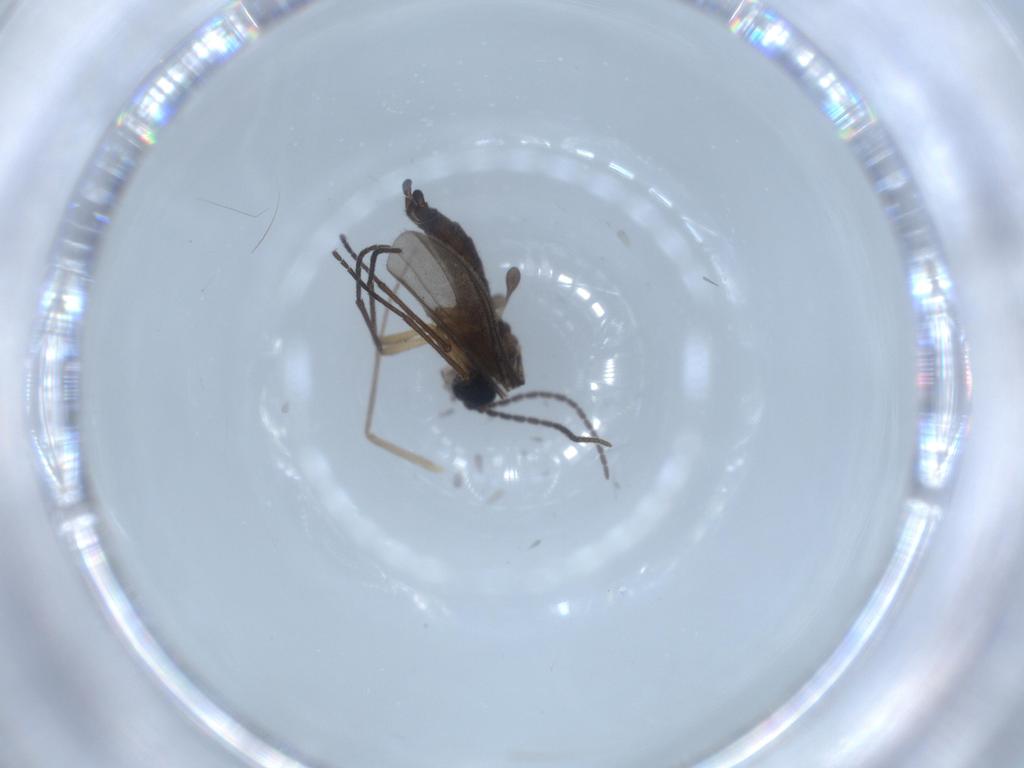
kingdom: Animalia
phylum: Arthropoda
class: Insecta
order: Diptera
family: Chironomidae
